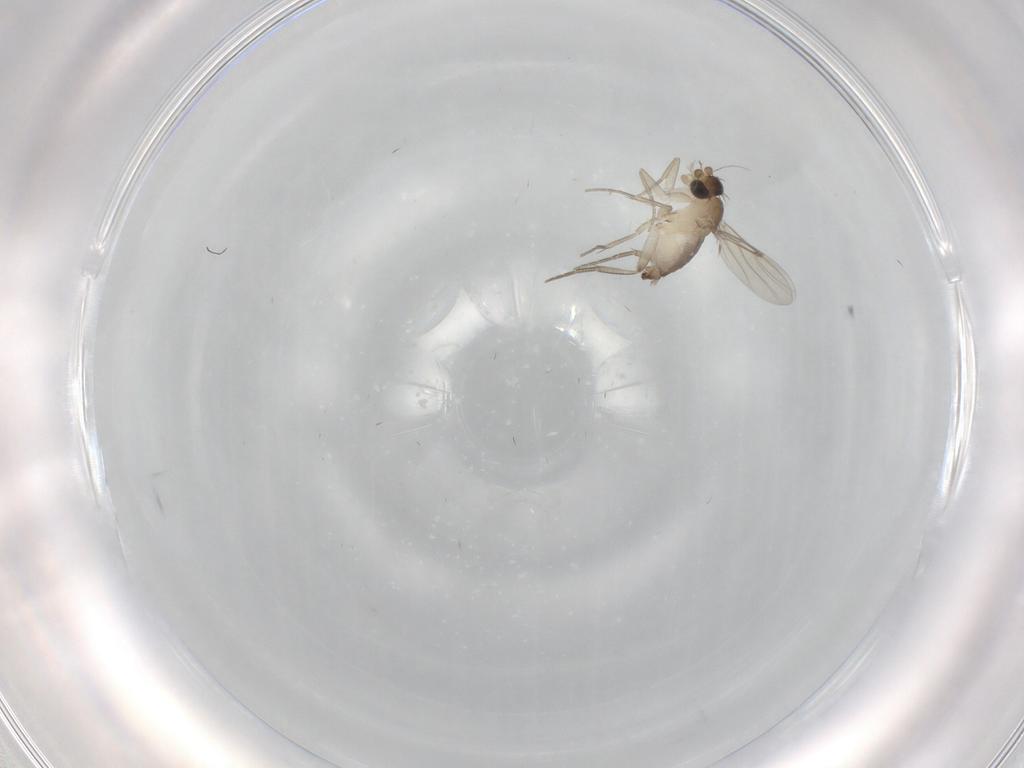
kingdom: Animalia
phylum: Arthropoda
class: Insecta
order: Diptera
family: Phoridae
